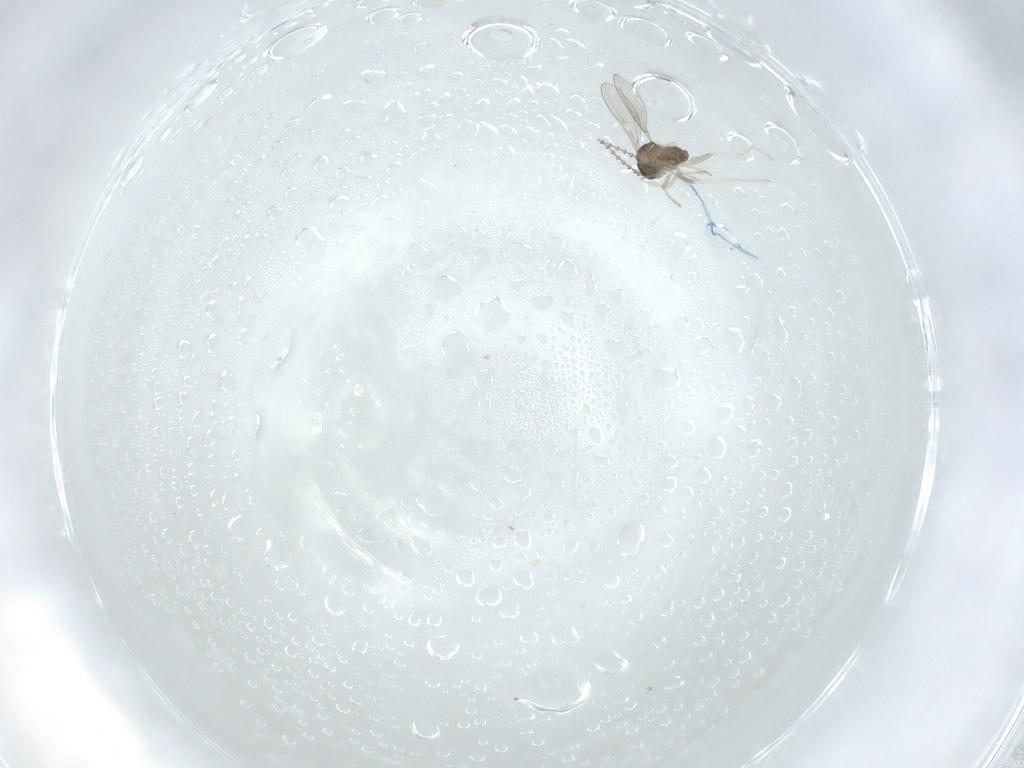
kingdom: Animalia
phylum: Arthropoda
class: Insecta
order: Diptera
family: Cecidomyiidae
